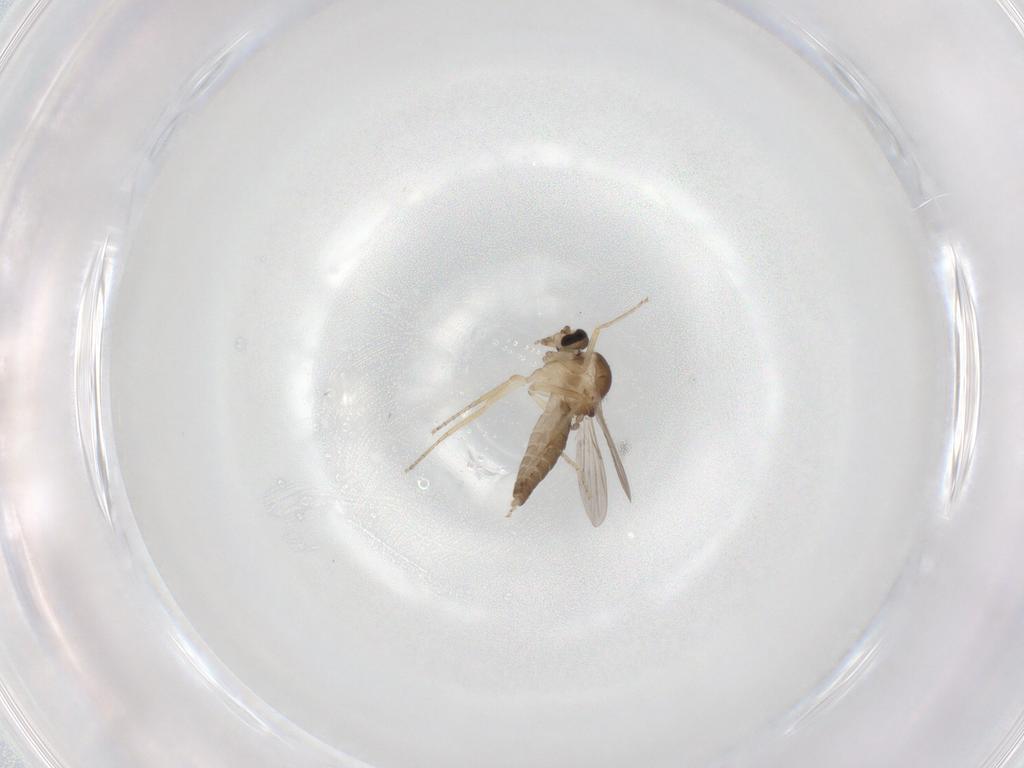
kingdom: Animalia
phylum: Arthropoda
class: Insecta
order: Diptera
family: Ceratopogonidae
